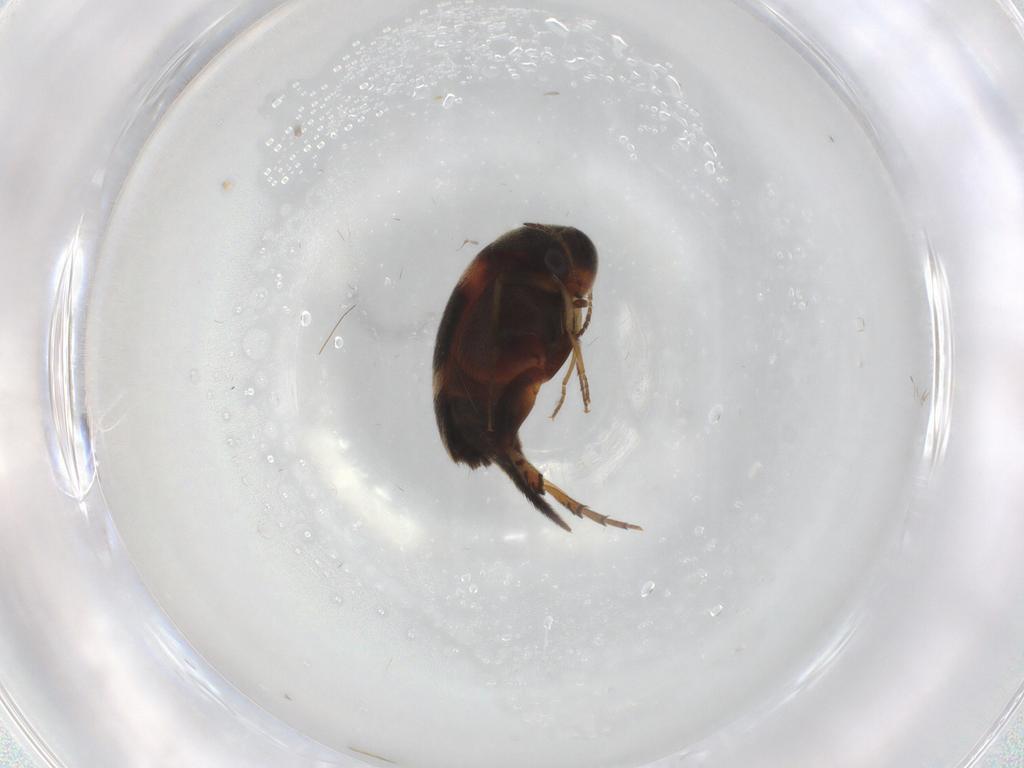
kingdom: Animalia
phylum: Arthropoda
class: Insecta
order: Coleoptera
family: Mordellidae
